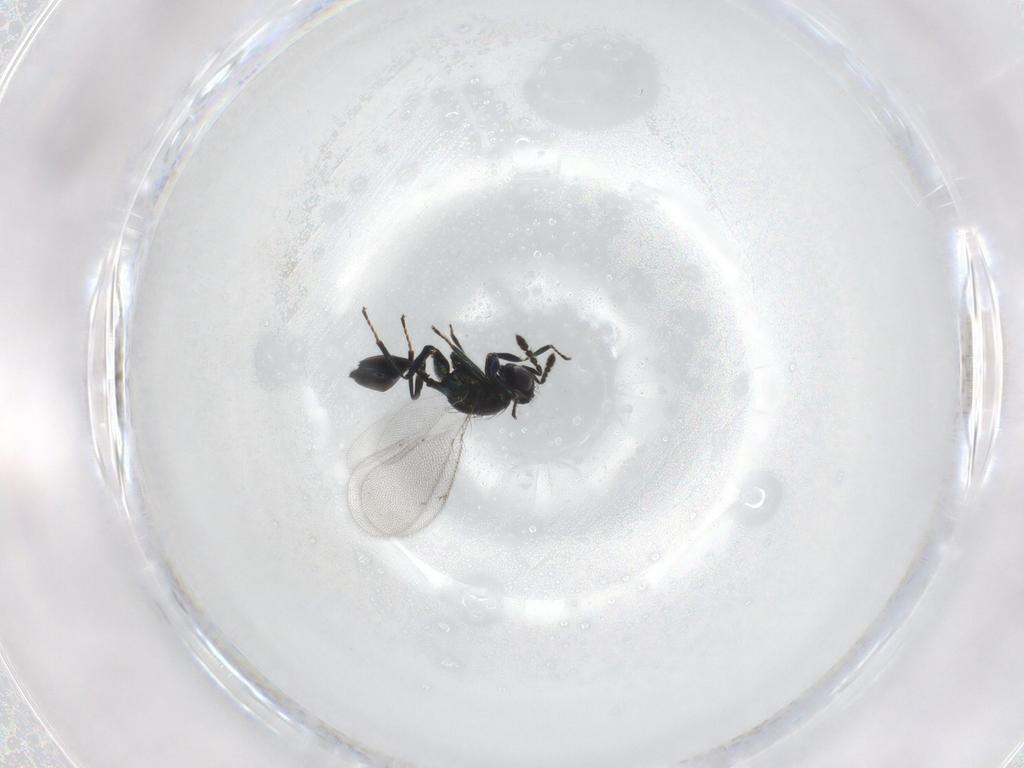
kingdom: Animalia
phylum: Arthropoda
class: Insecta
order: Hymenoptera
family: Eulophidae
